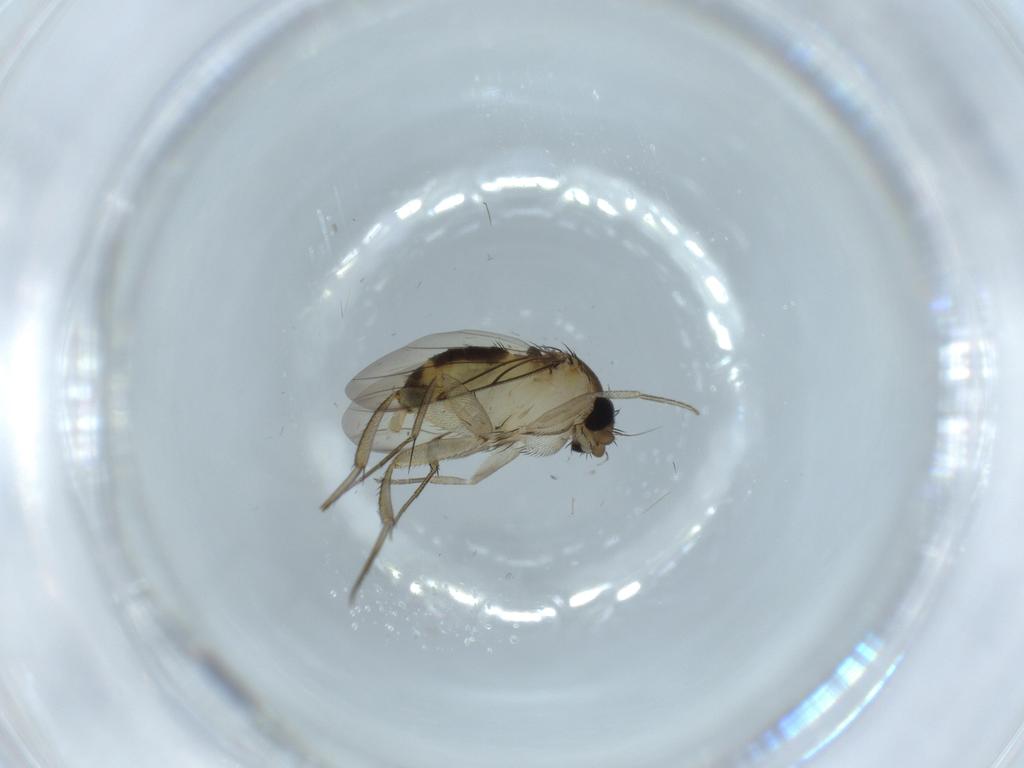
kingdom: Animalia
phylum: Arthropoda
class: Insecta
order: Diptera
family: Phoridae
